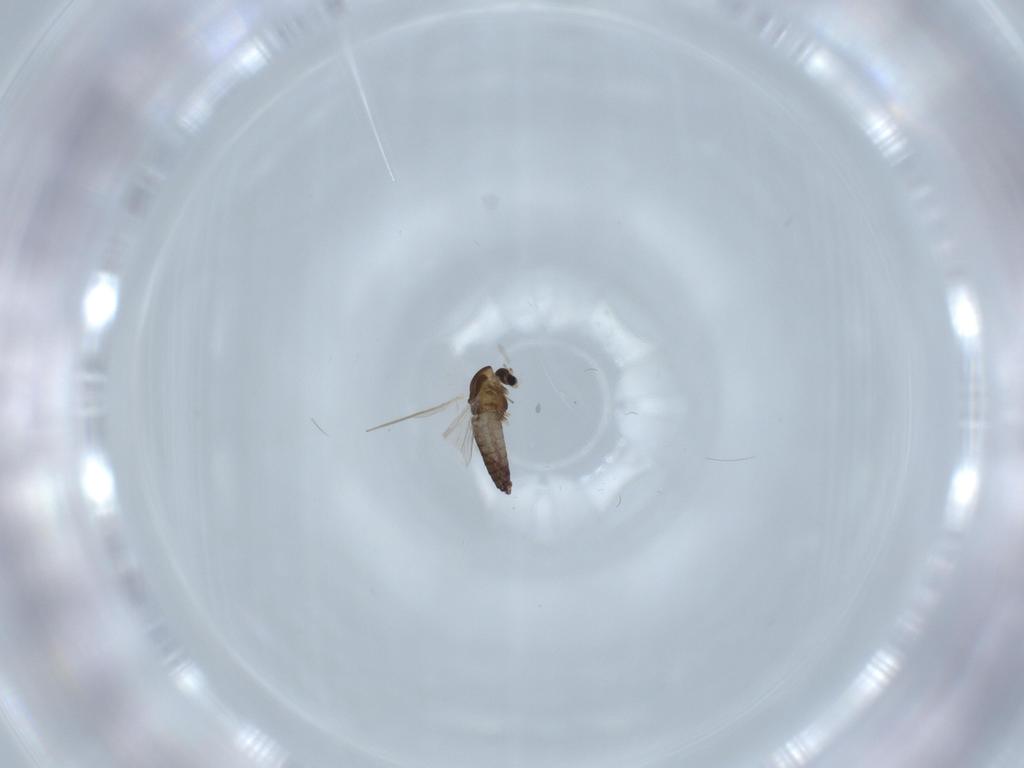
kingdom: Animalia
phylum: Arthropoda
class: Insecta
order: Diptera
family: Chironomidae
